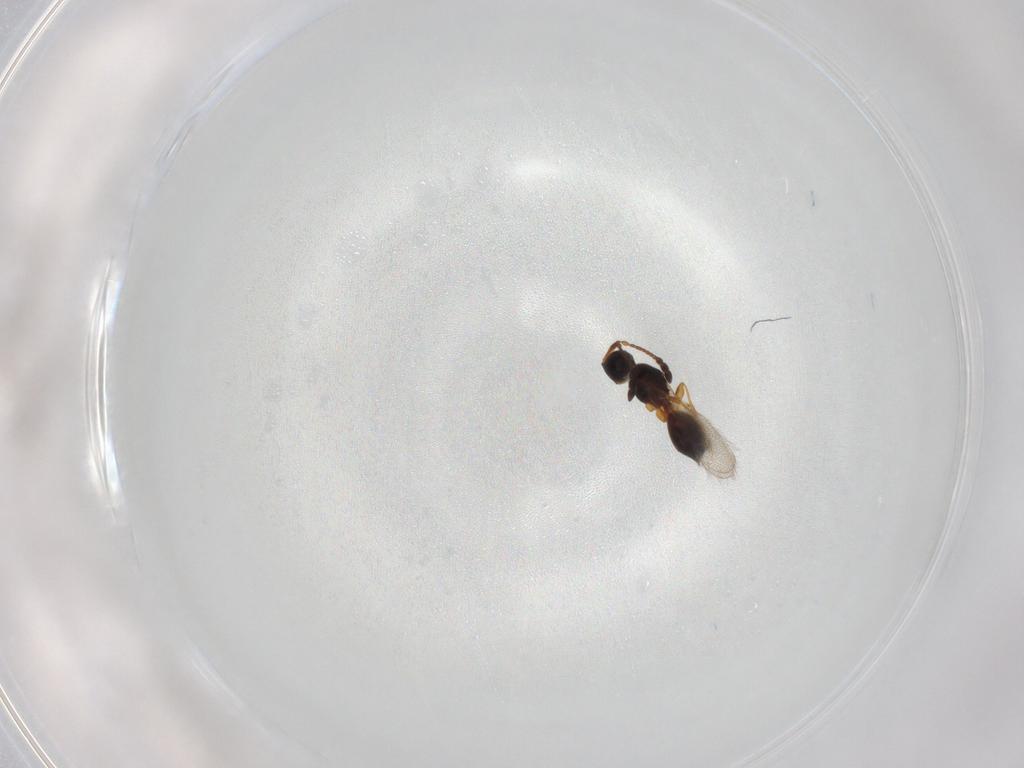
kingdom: Animalia
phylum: Arthropoda
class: Insecta
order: Hymenoptera
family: Diapriidae
